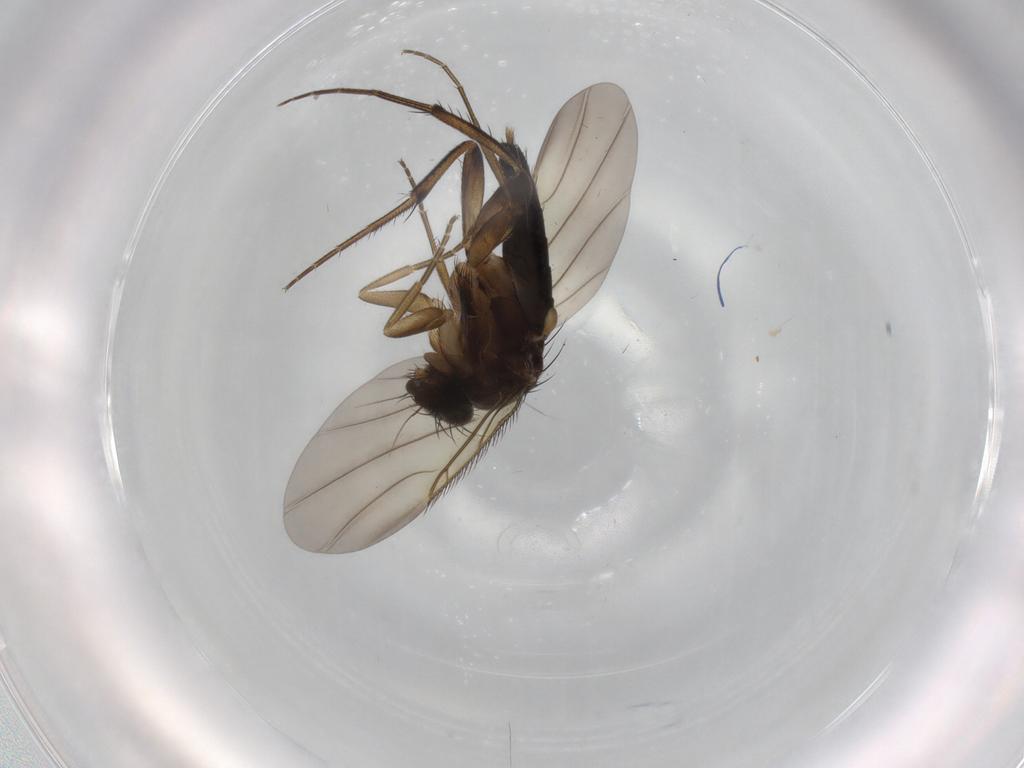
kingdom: Animalia
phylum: Arthropoda
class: Insecta
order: Diptera
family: Phoridae
